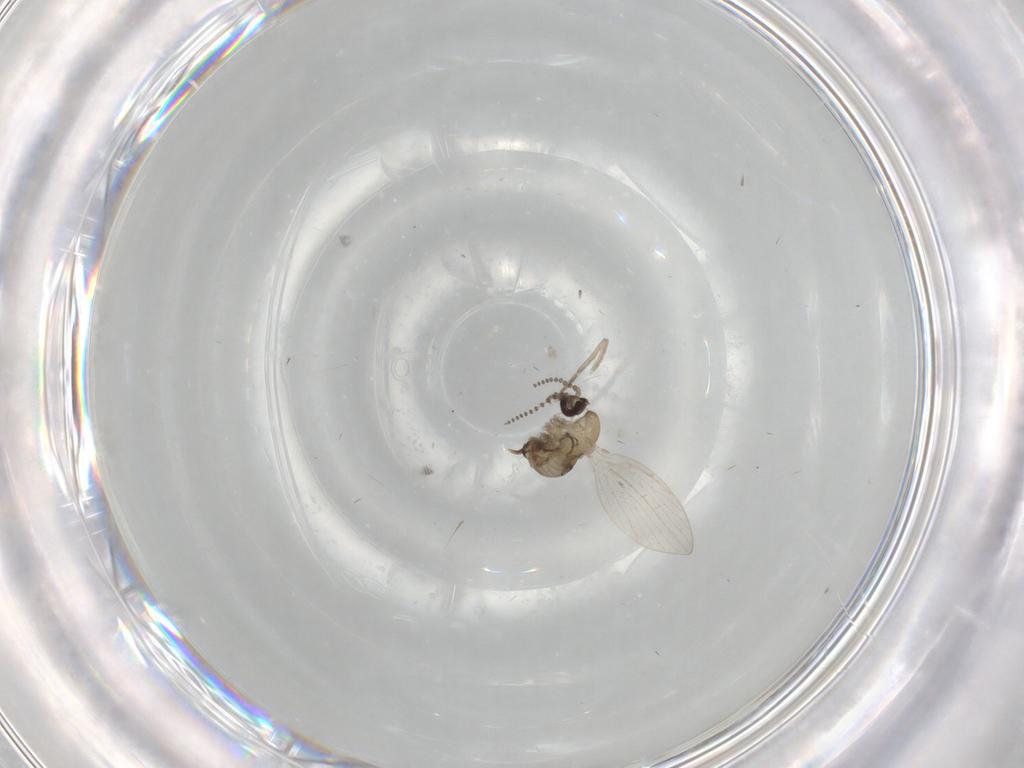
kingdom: Animalia
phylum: Arthropoda
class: Insecta
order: Diptera
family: Psychodidae
